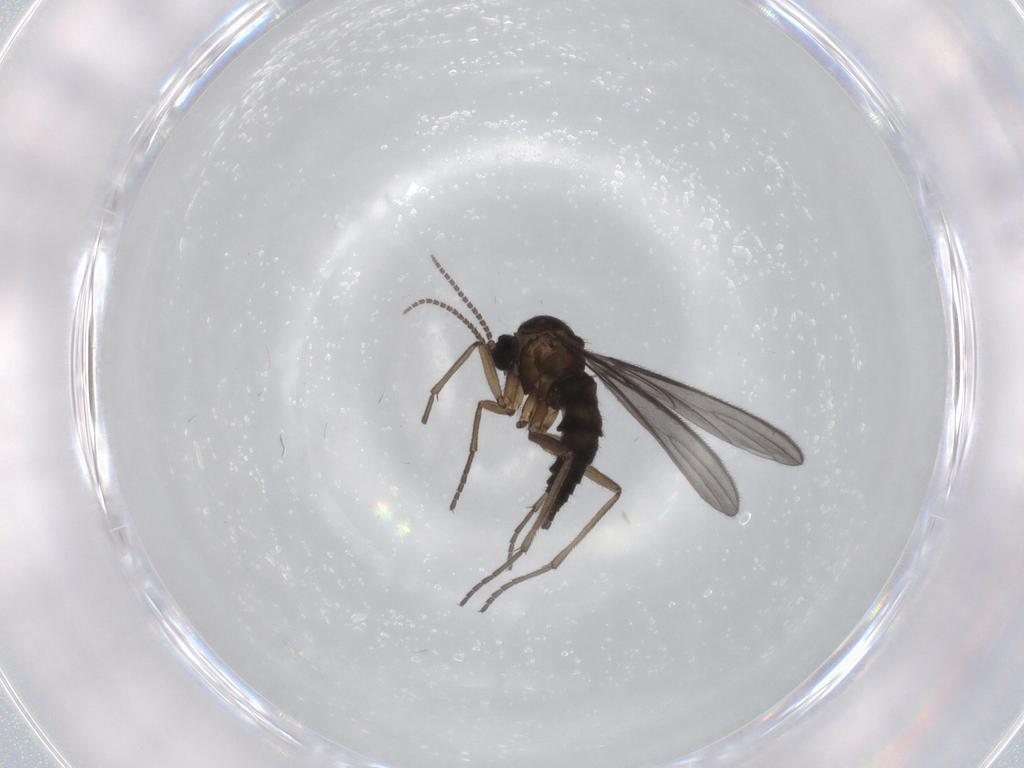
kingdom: Animalia
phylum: Arthropoda
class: Insecta
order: Diptera
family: Sciaridae
